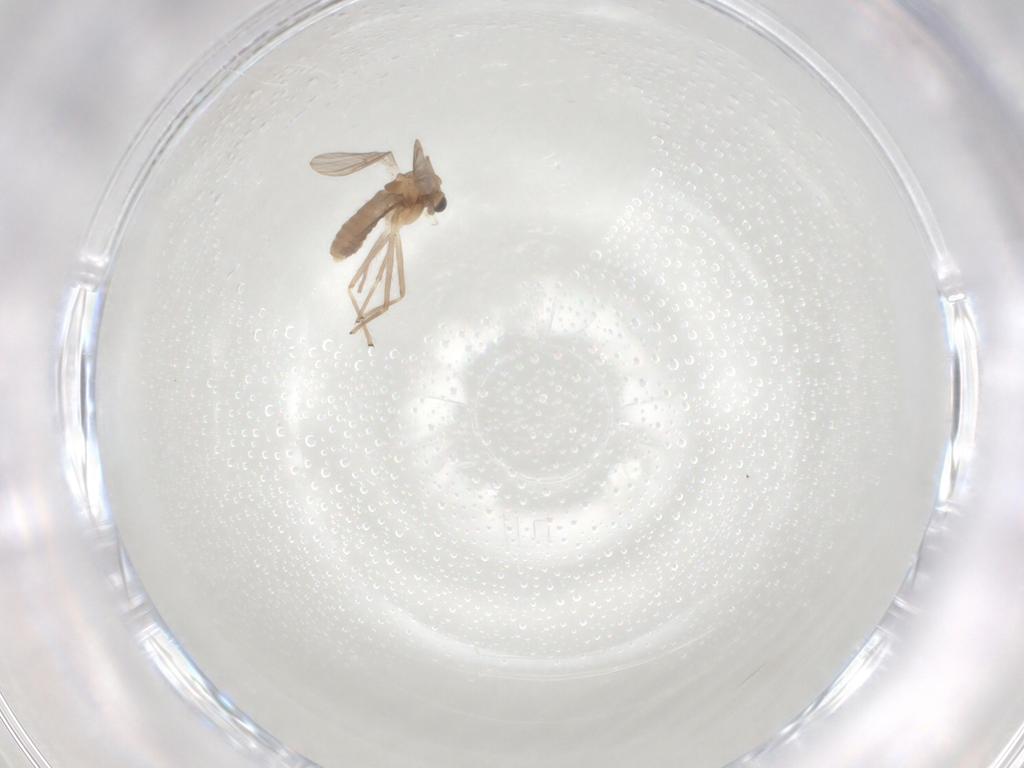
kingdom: Animalia
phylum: Arthropoda
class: Insecta
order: Diptera
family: Chironomidae
